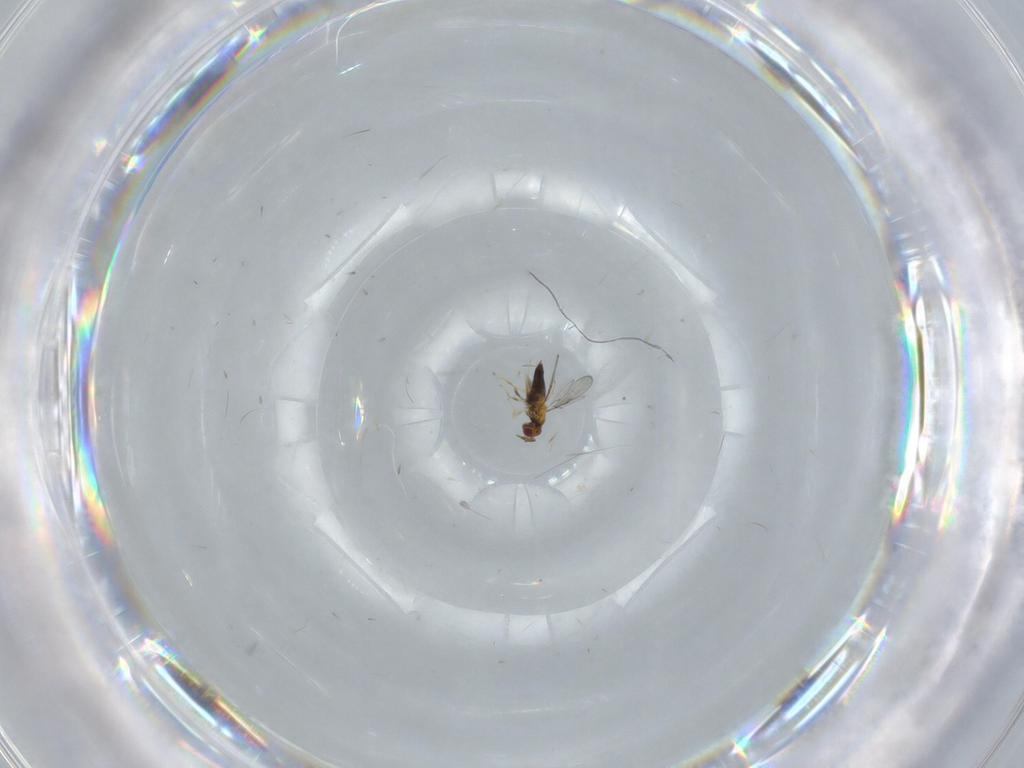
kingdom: Animalia
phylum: Arthropoda
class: Insecta
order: Hymenoptera
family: Trichogrammatidae
